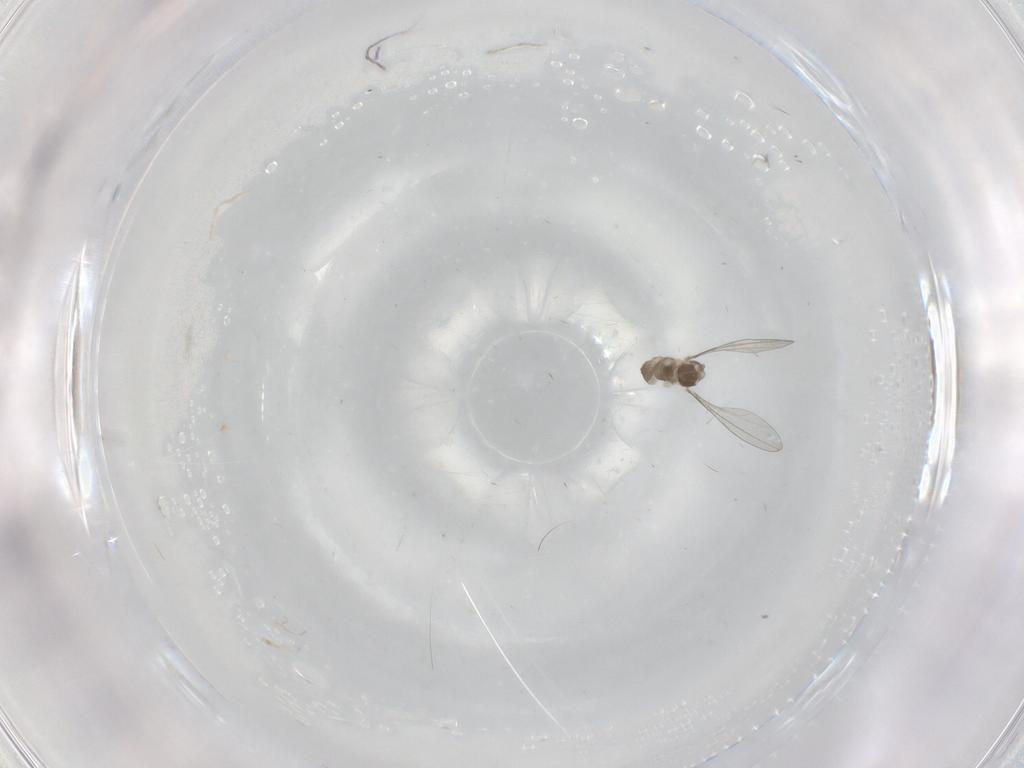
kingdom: Animalia
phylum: Arthropoda
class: Insecta
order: Diptera
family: Cecidomyiidae
